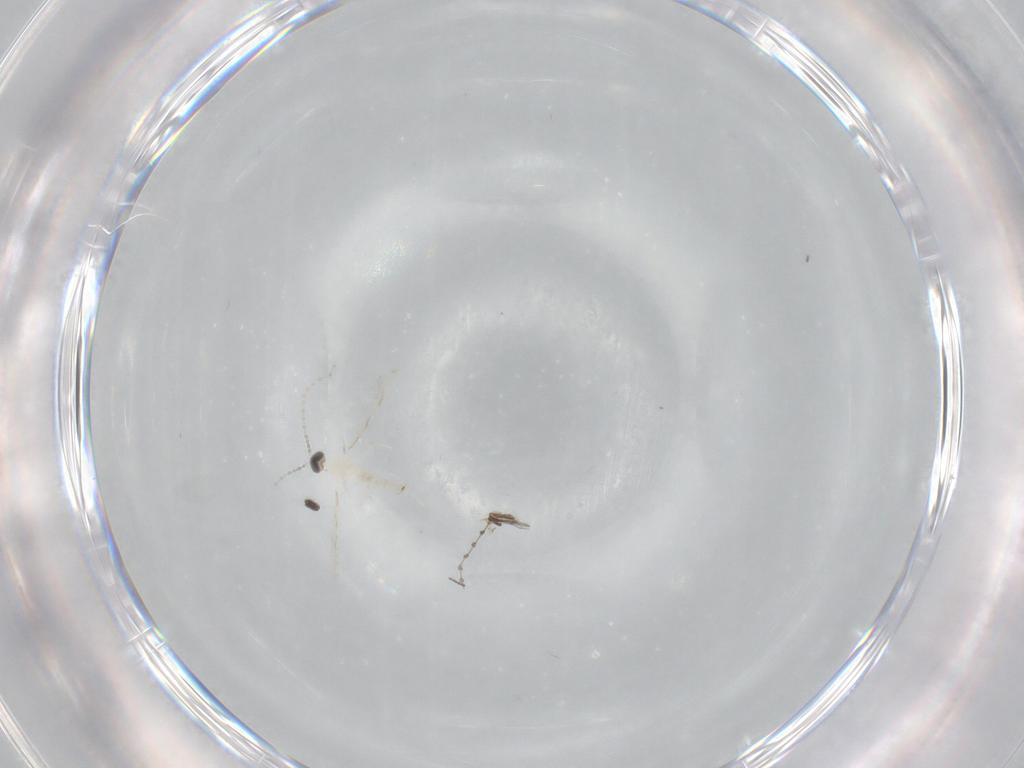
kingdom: Animalia
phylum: Arthropoda
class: Insecta
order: Diptera
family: Cecidomyiidae
